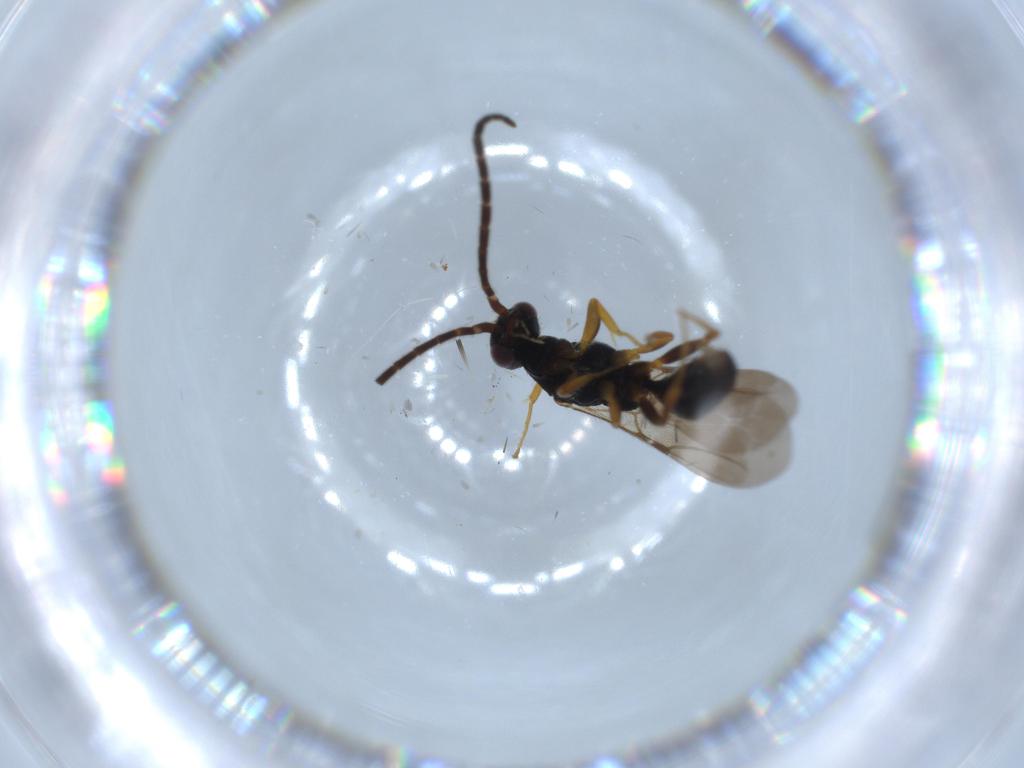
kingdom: Animalia
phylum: Arthropoda
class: Insecta
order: Hymenoptera
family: Bethylidae
